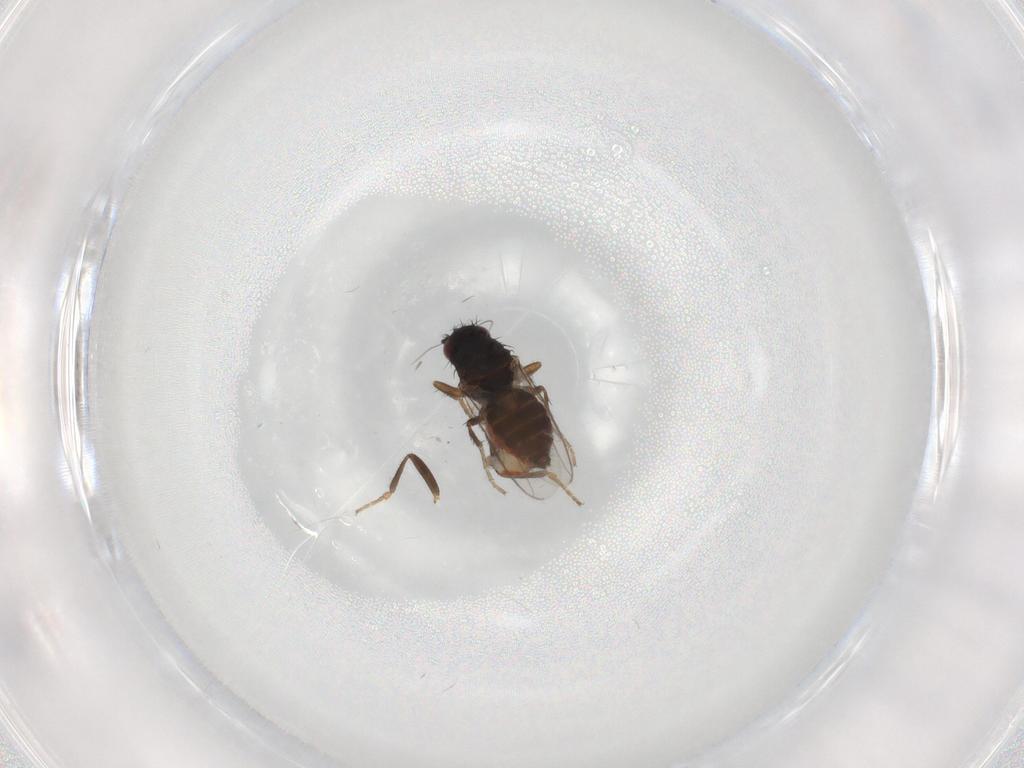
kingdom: Animalia
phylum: Arthropoda
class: Insecta
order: Diptera
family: Sphaeroceridae
